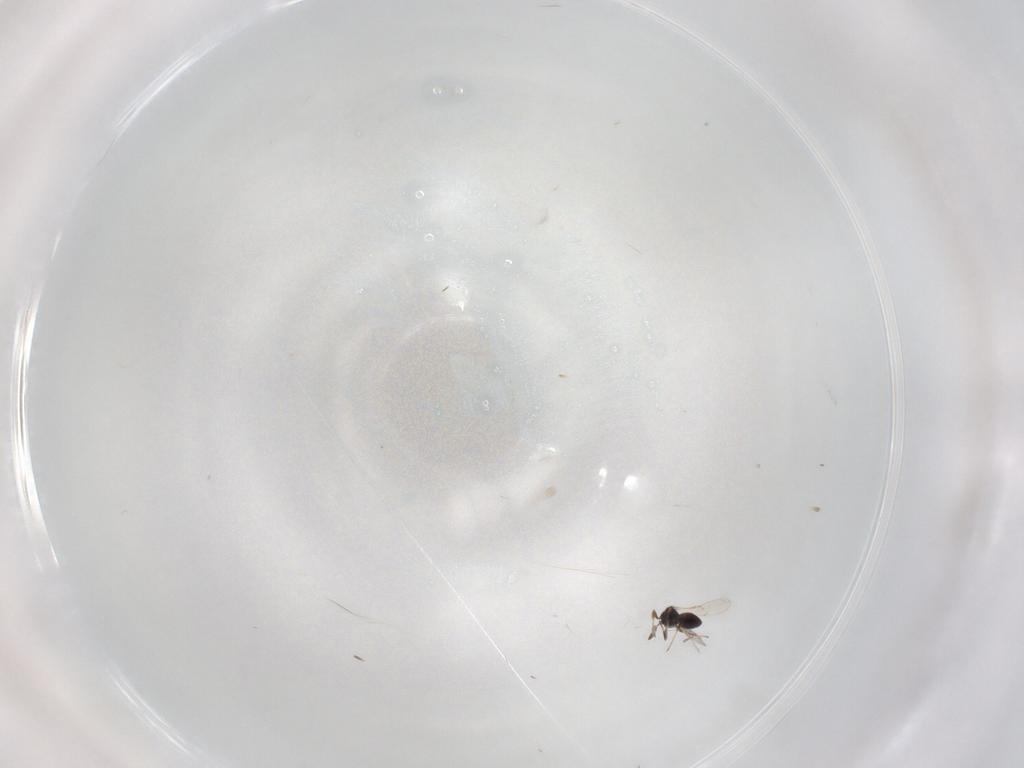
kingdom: Animalia
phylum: Arthropoda
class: Insecta
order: Hymenoptera
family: Scelionidae
